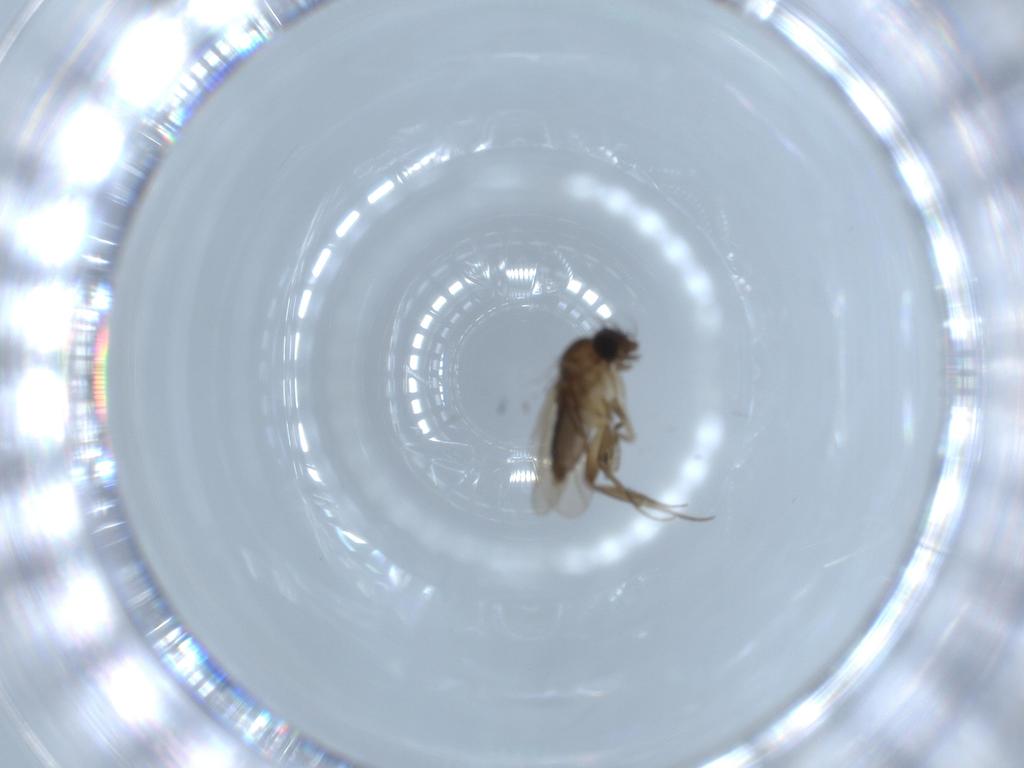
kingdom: Animalia
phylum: Arthropoda
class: Insecta
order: Diptera
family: Phoridae
